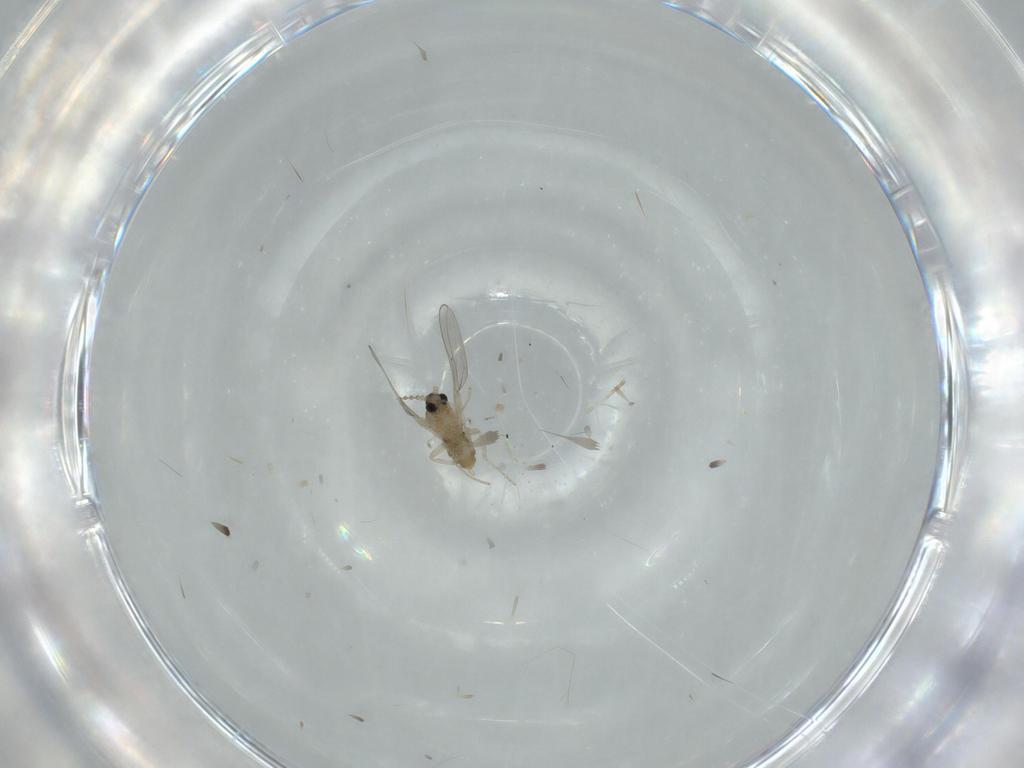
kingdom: Animalia
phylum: Arthropoda
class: Insecta
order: Diptera
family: Cecidomyiidae
